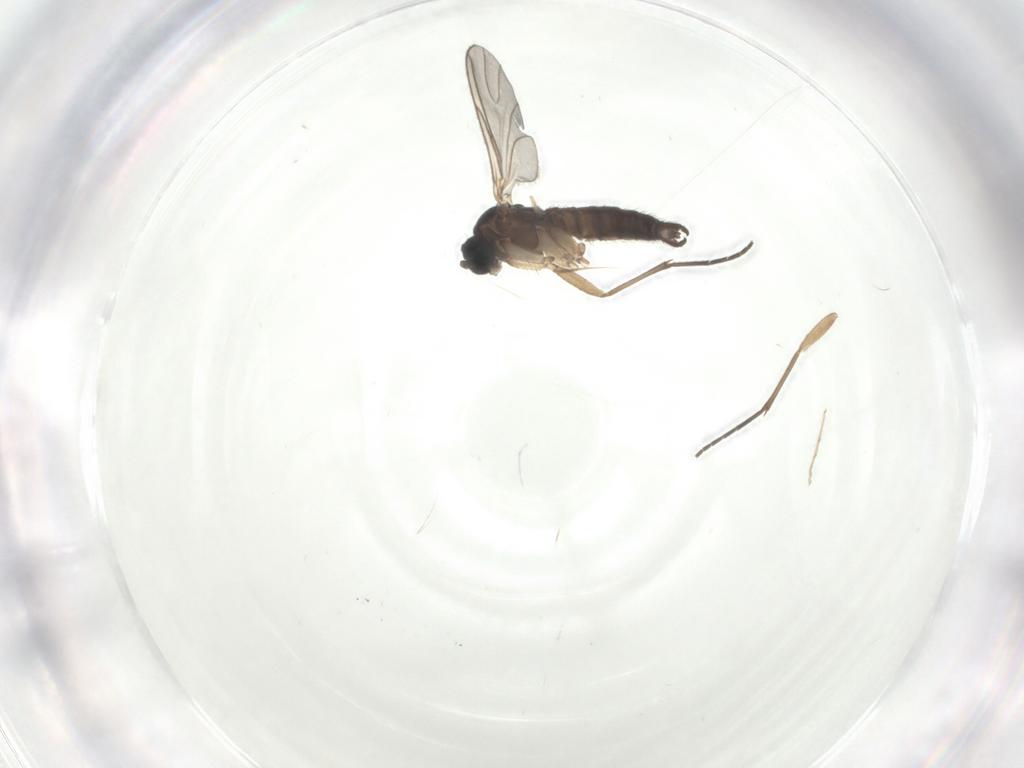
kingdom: Animalia
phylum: Arthropoda
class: Insecta
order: Diptera
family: Sciaridae
